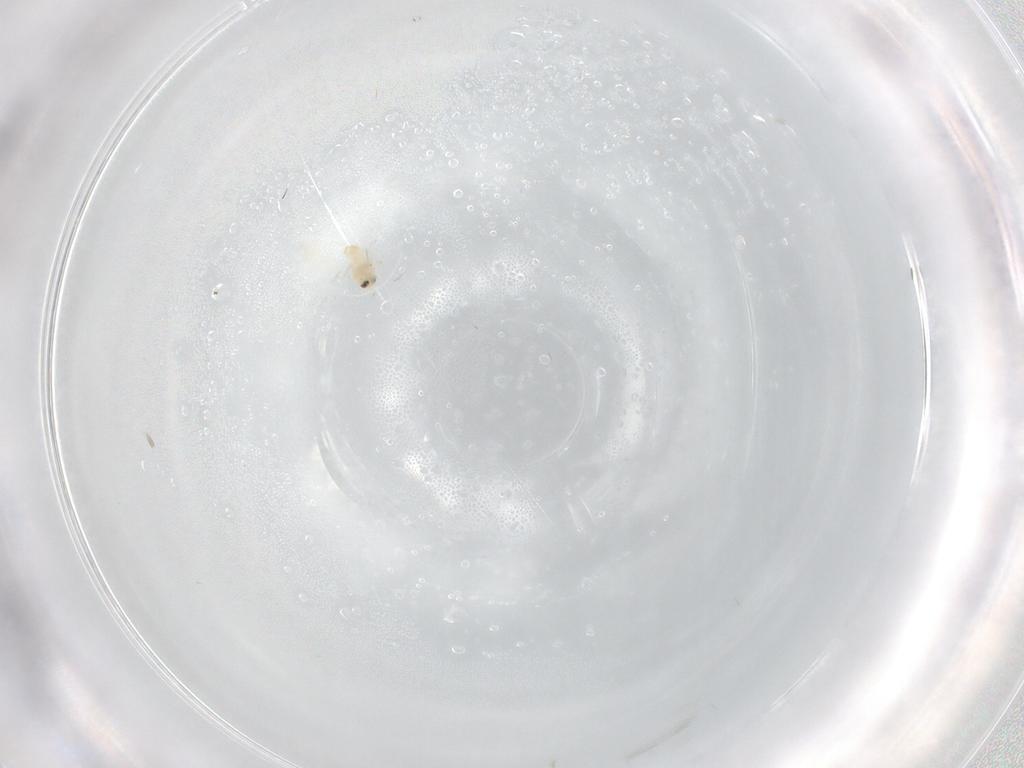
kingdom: Animalia
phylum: Arthropoda
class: Insecta
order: Hemiptera
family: Aleyrodidae
